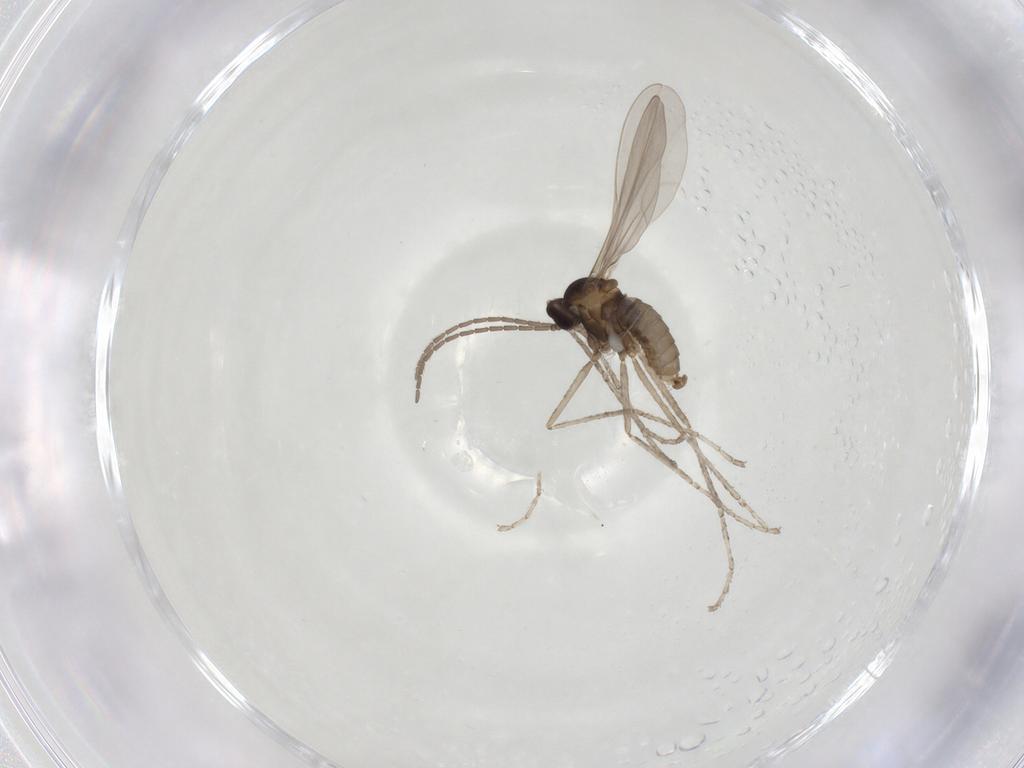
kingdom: Animalia
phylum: Arthropoda
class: Insecta
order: Diptera
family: Cecidomyiidae
